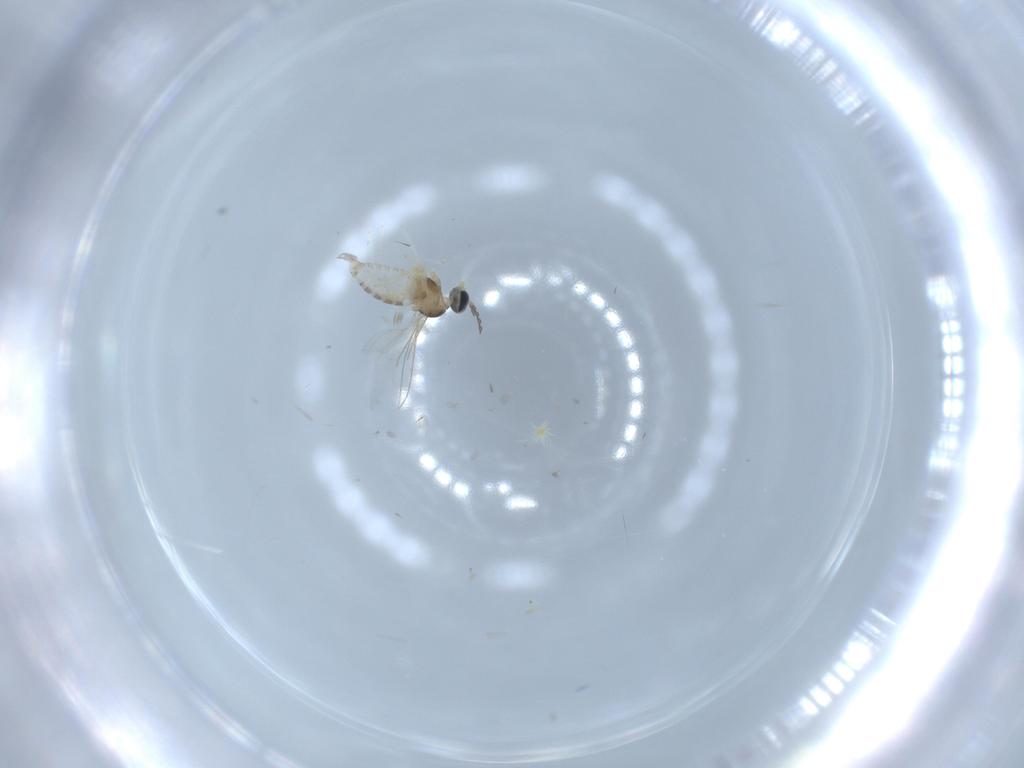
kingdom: Animalia
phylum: Arthropoda
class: Insecta
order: Diptera
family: Cecidomyiidae
